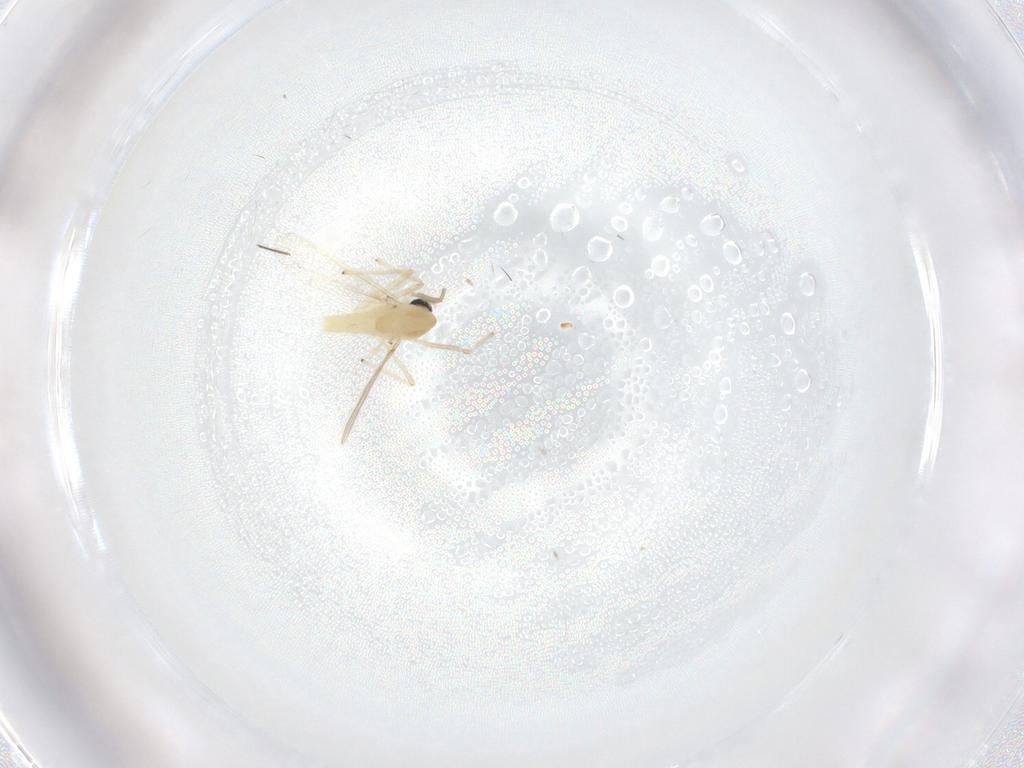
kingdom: Animalia
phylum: Arthropoda
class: Insecta
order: Diptera
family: Chironomidae
